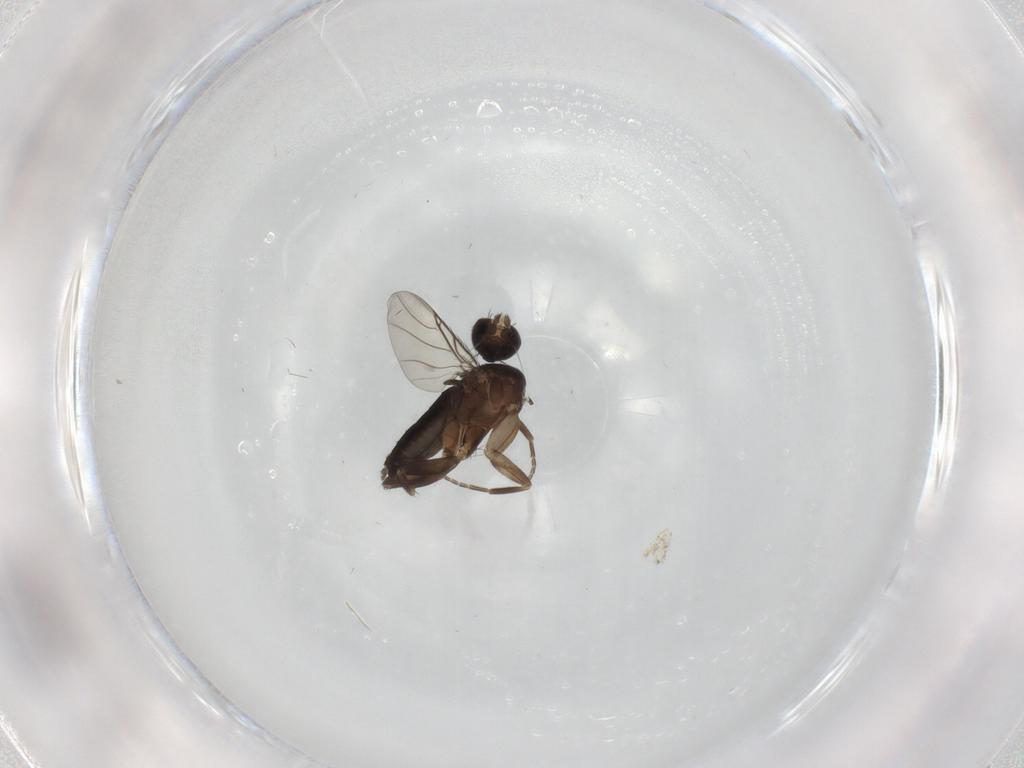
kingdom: Animalia
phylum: Arthropoda
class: Insecta
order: Diptera
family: Phoridae
